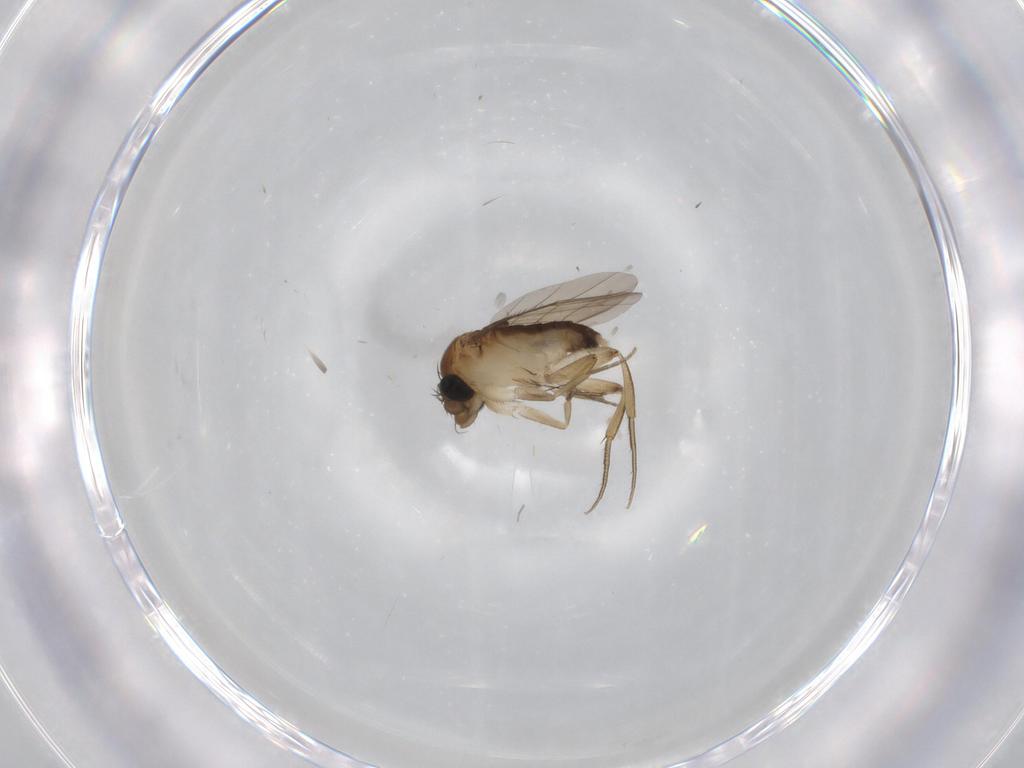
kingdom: Animalia
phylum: Arthropoda
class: Insecta
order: Diptera
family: Phoridae
